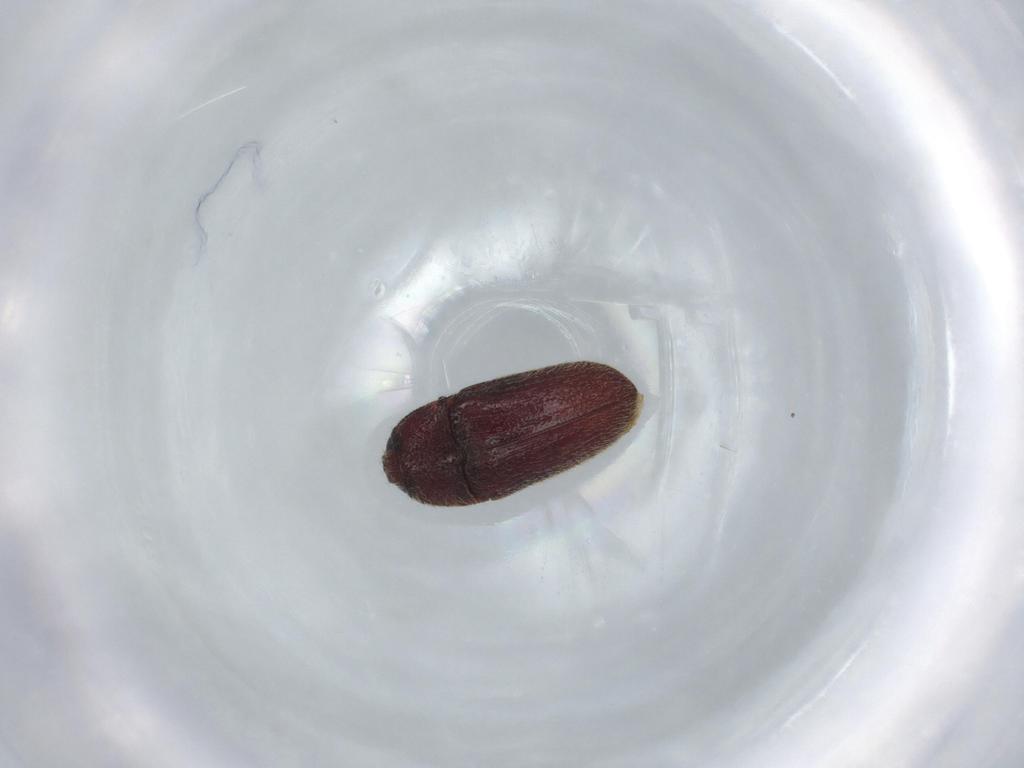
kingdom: Animalia
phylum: Arthropoda
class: Insecta
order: Coleoptera
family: Throscidae
